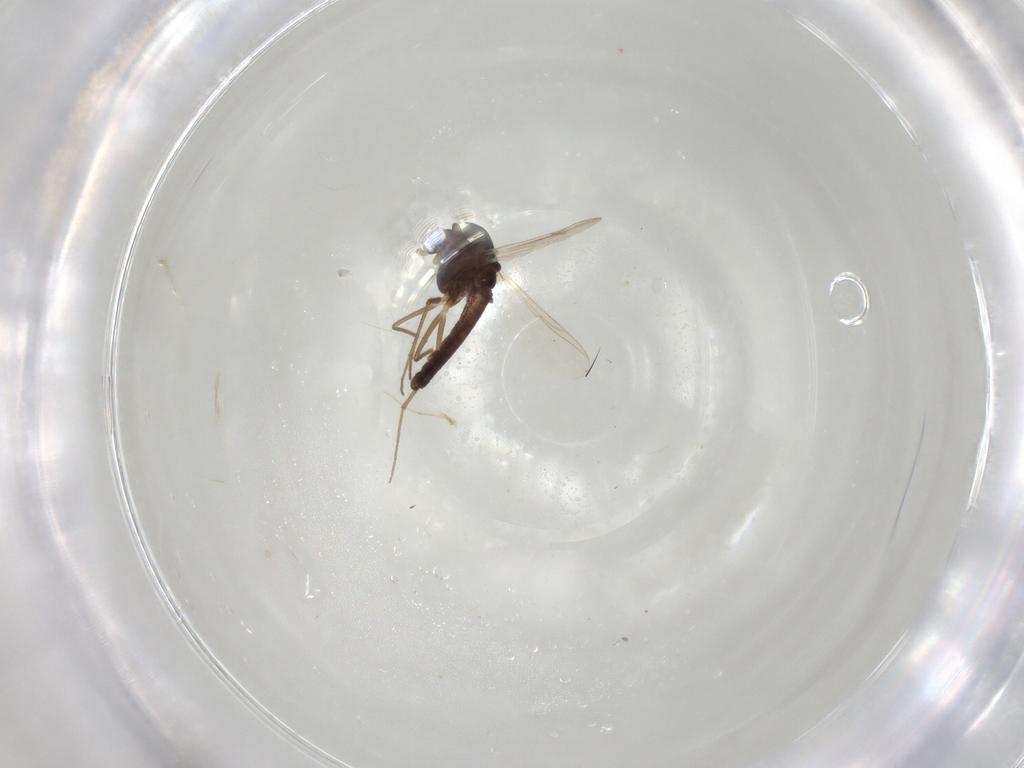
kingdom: Animalia
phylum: Arthropoda
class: Insecta
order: Diptera
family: Chironomidae
